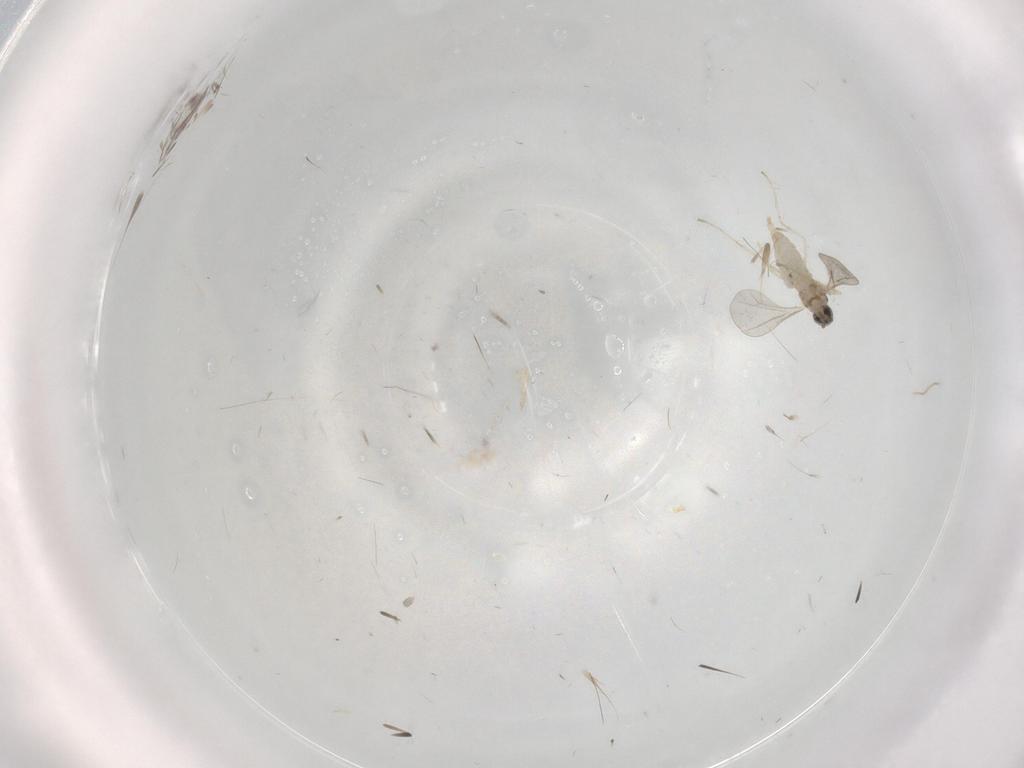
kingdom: Animalia
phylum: Arthropoda
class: Insecta
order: Diptera
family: Cecidomyiidae
